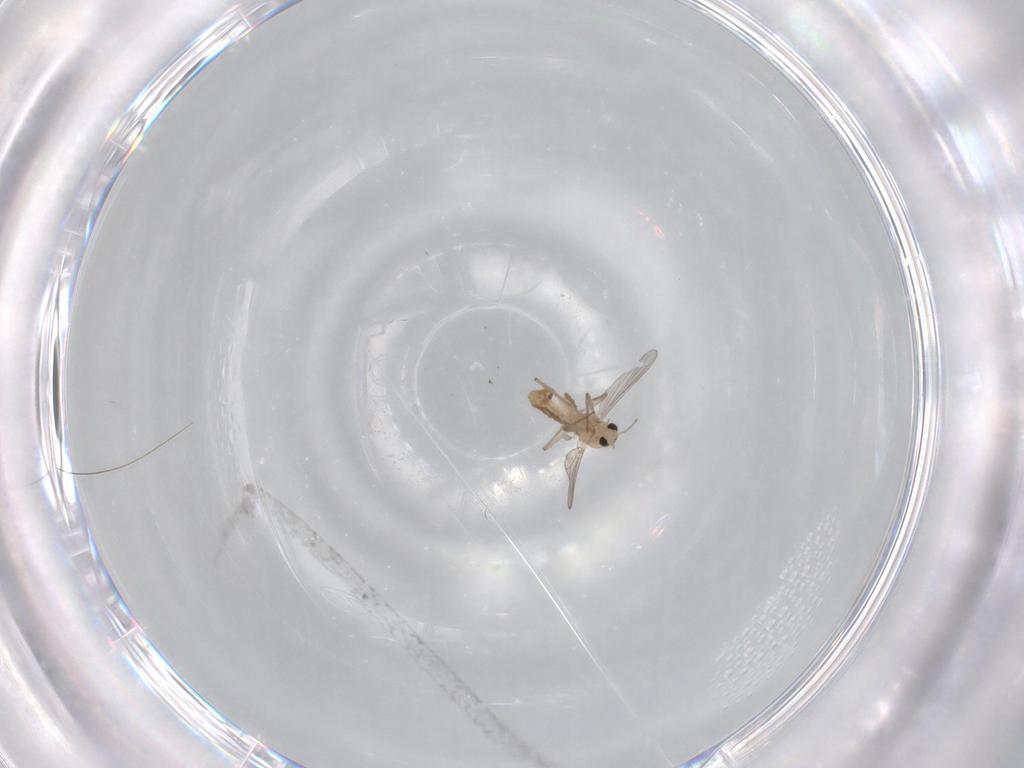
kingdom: Animalia
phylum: Arthropoda
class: Insecta
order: Diptera
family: Chironomidae
